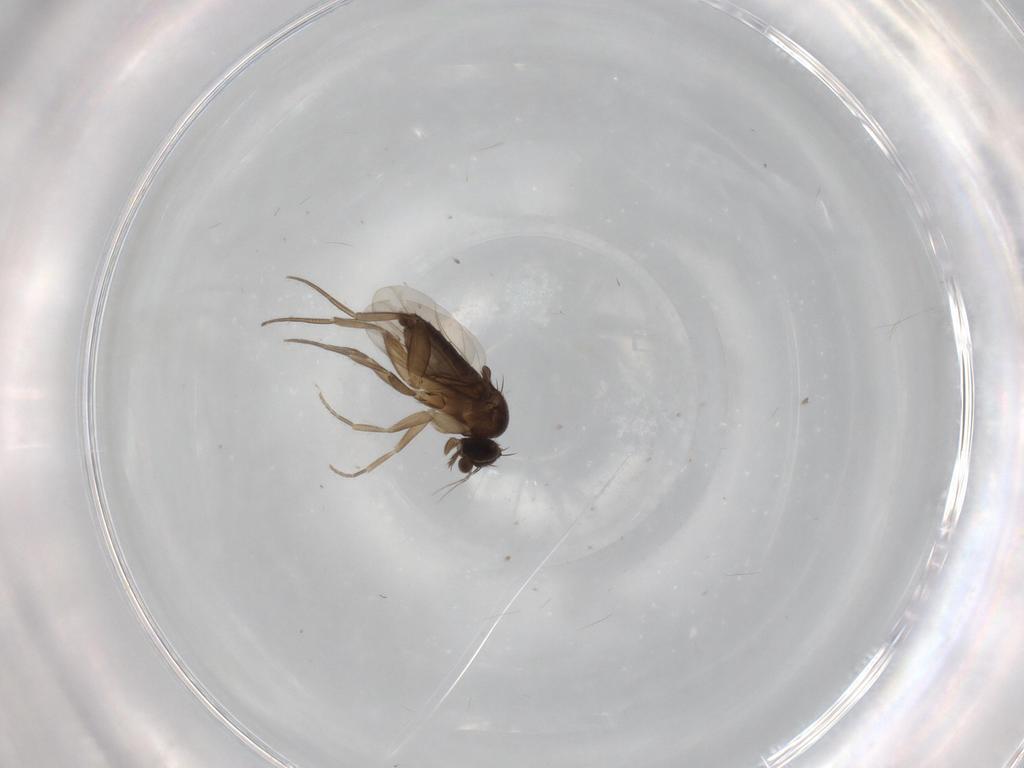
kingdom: Animalia
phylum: Arthropoda
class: Insecta
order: Diptera
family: Phoridae
